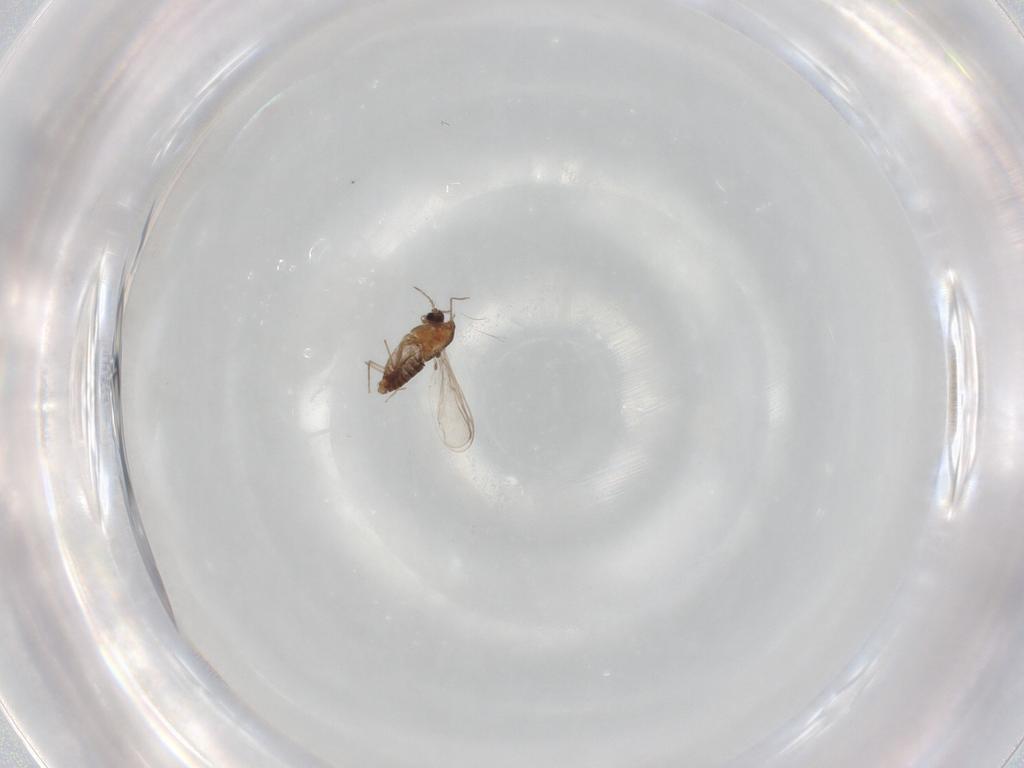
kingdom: Animalia
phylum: Arthropoda
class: Insecta
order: Diptera
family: Chironomidae
